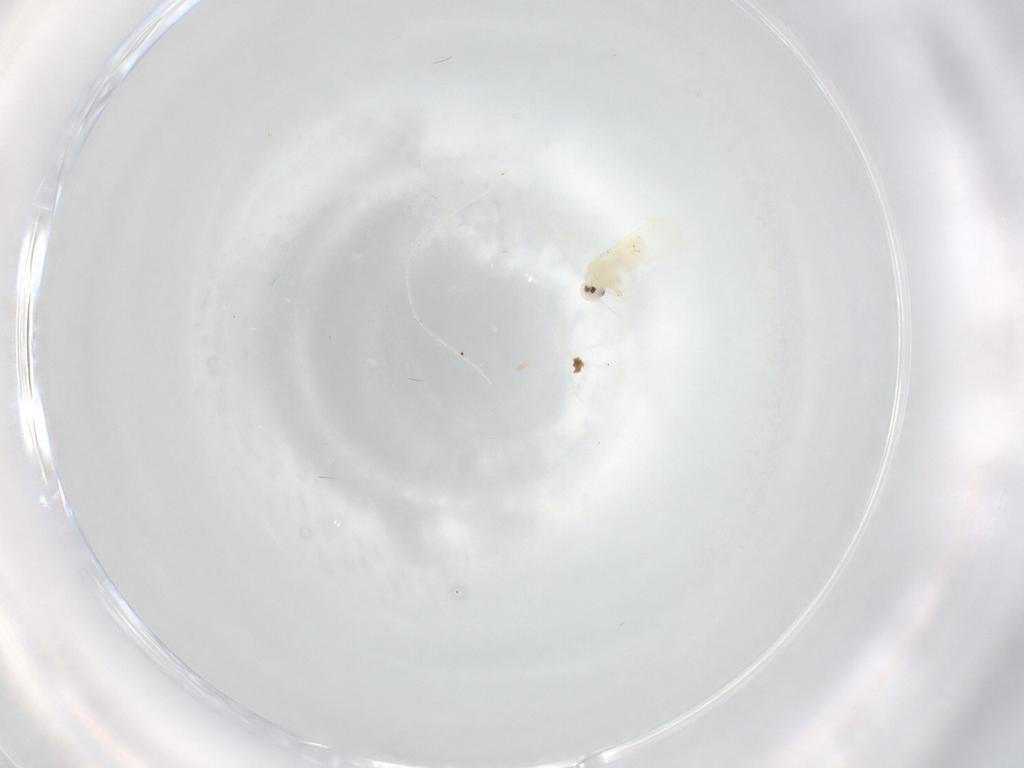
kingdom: Animalia
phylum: Arthropoda
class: Insecta
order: Hemiptera
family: Aleyrodidae
